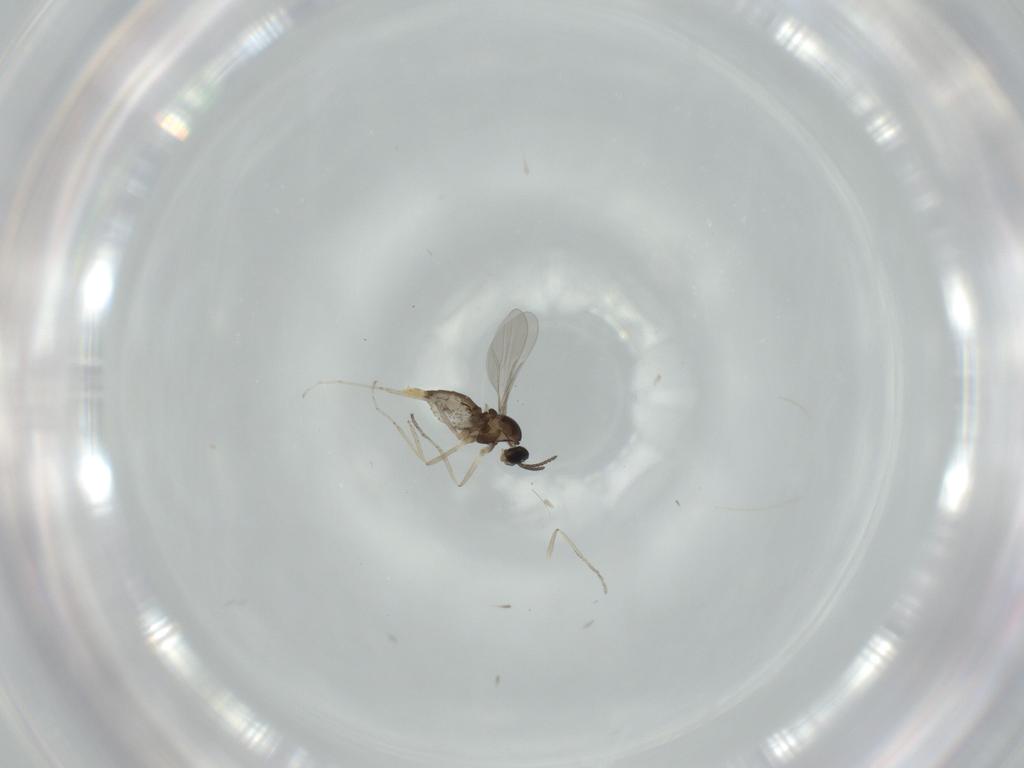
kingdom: Animalia
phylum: Arthropoda
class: Insecta
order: Diptera
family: Cecidomyiidae
